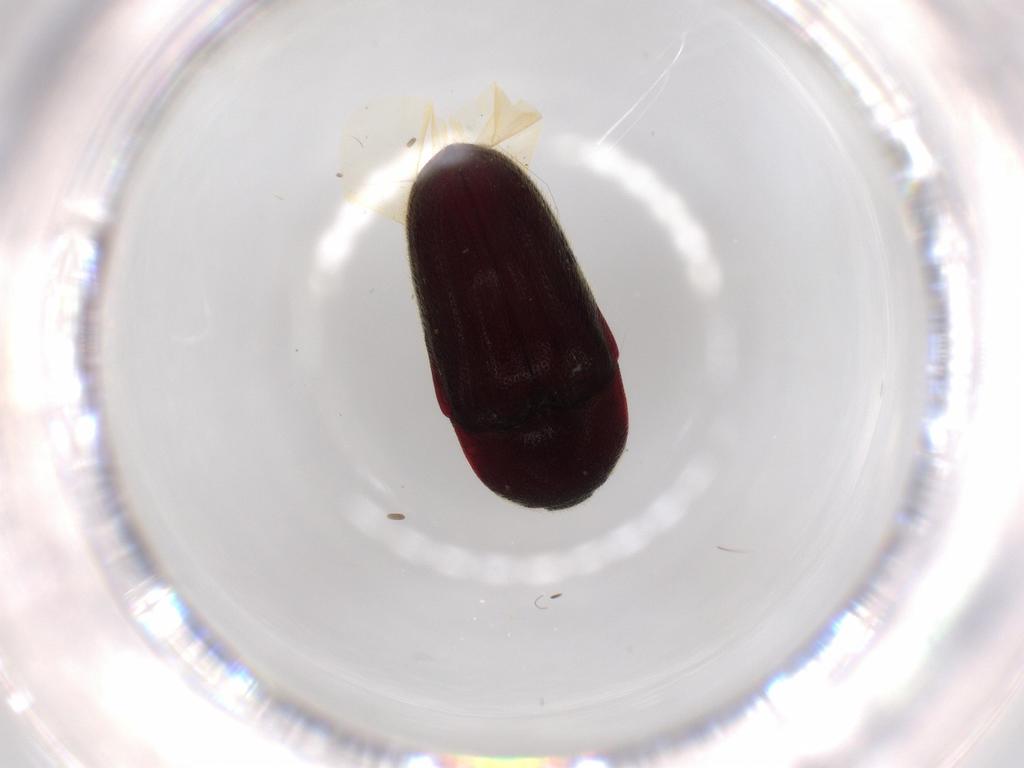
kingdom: Animalia
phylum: Arthropoda
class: Insecta
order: Coleoptera
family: Throscidae
